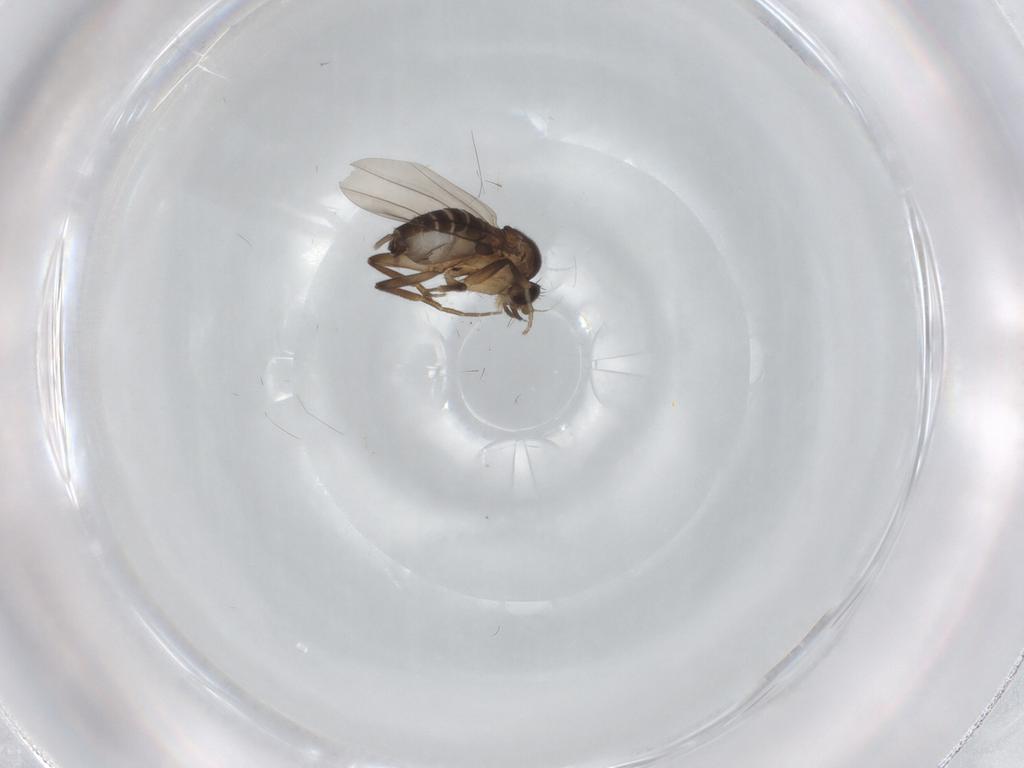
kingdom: Animalia
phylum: Arthropoda
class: Insecta
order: Diptera
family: Phoridae
